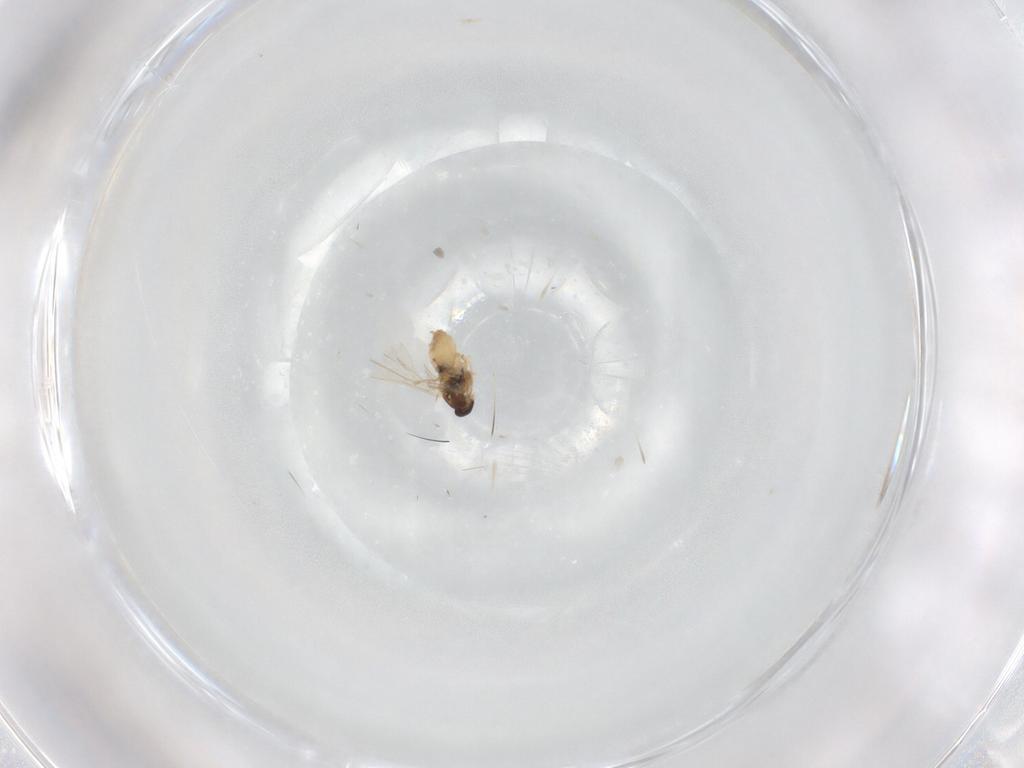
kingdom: Animalia
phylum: Arthropoda
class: Insecta
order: Diptera
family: Cecidomyiidae
